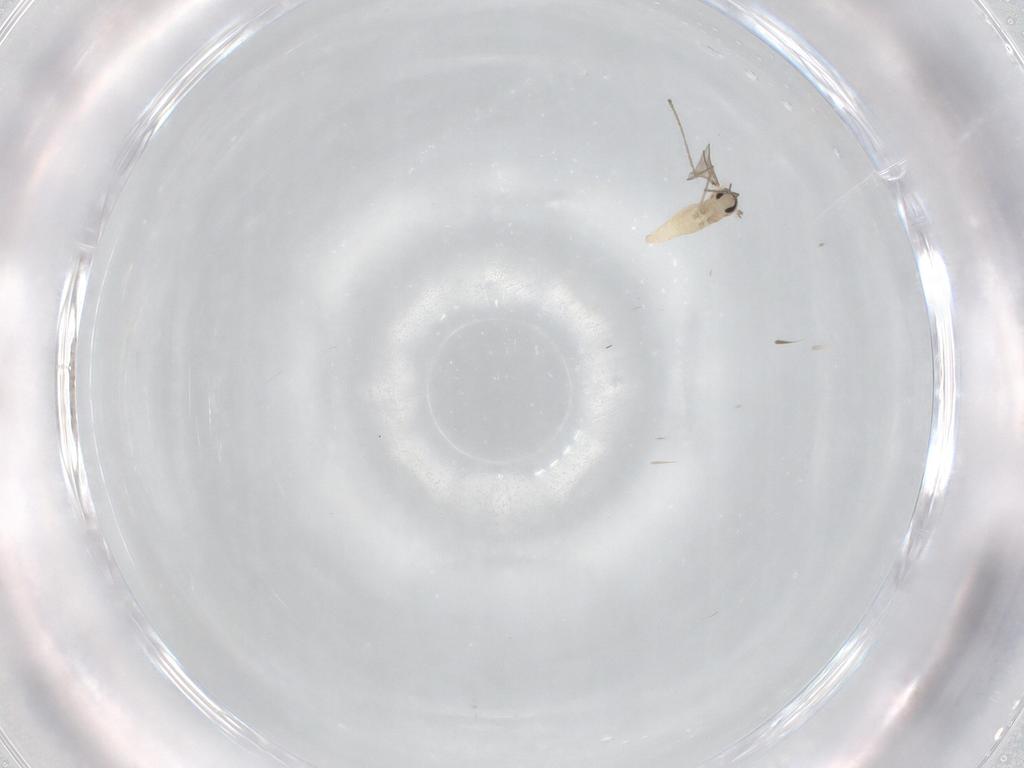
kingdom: Animalia
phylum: Arthropoda
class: Insecta
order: Diptera
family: Cecidomyiidae
